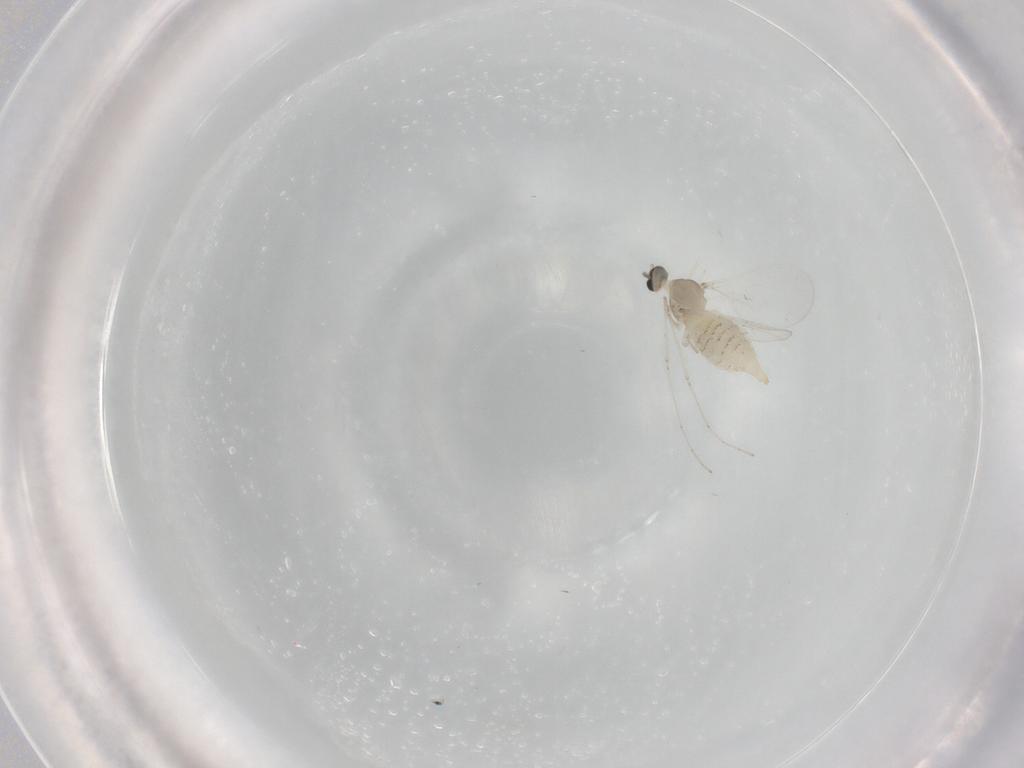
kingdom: Animalia
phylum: Arthropoda
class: Insecta
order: Diptera
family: Cecidomyiidae
